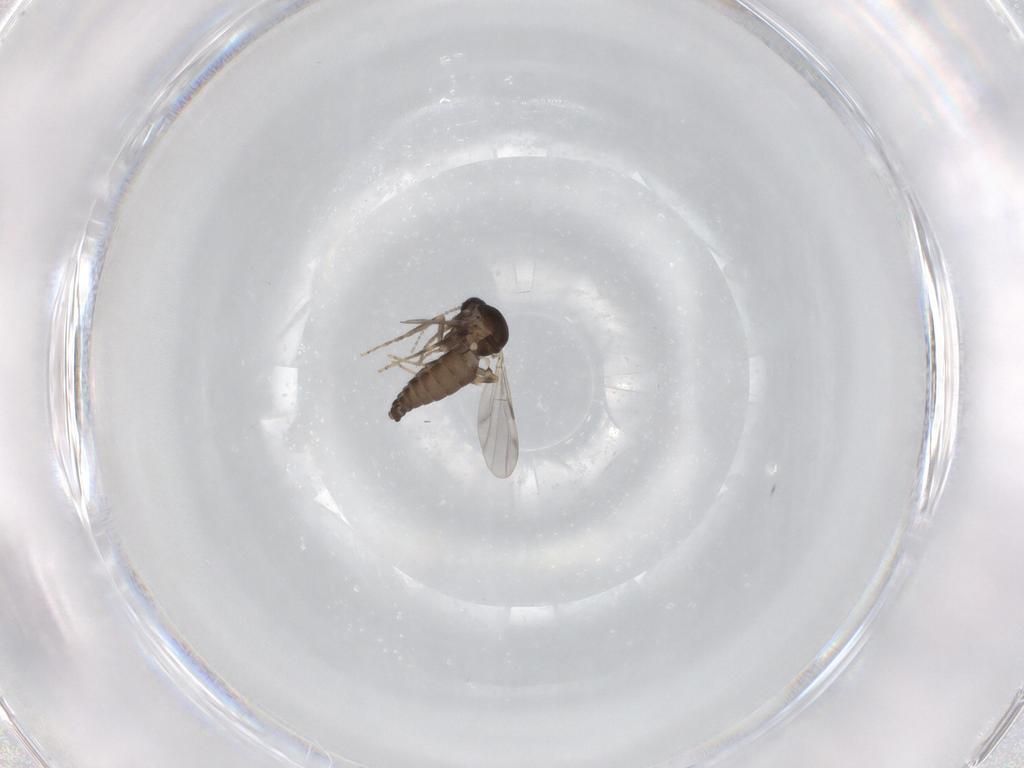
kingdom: Animalia
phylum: Arthropoda
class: Insecta
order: Diptera
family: Ceratopogonidae
